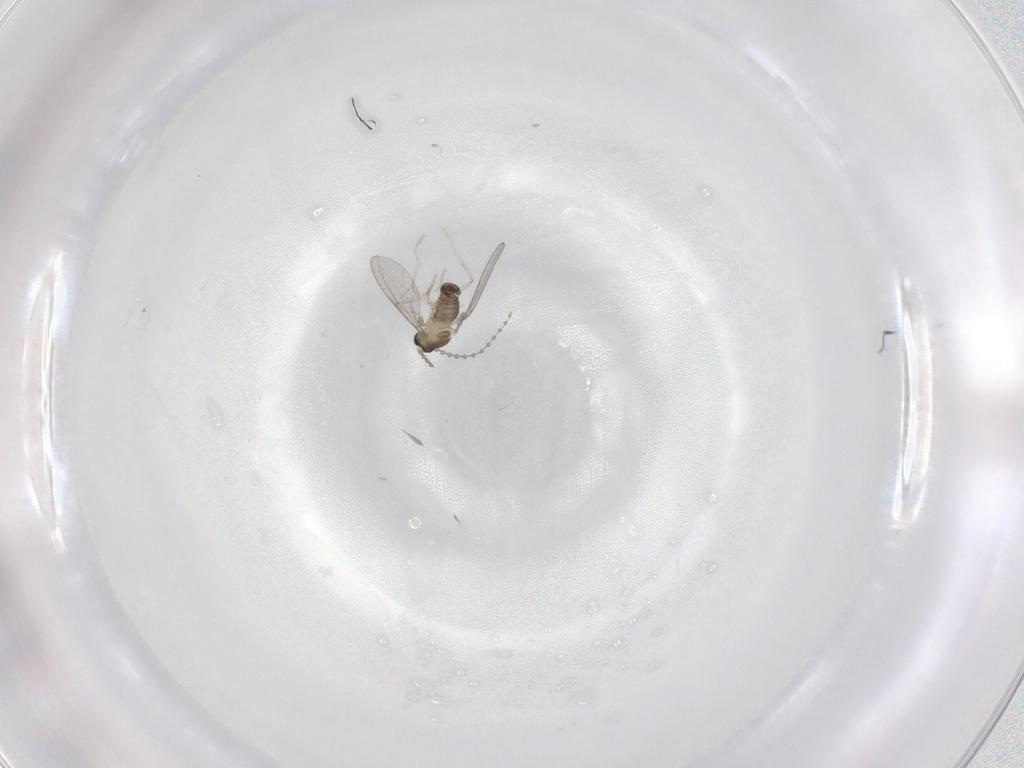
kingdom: Animalia
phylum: Arthropoda
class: Insecta
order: Diptera
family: Cecidomyiidae
